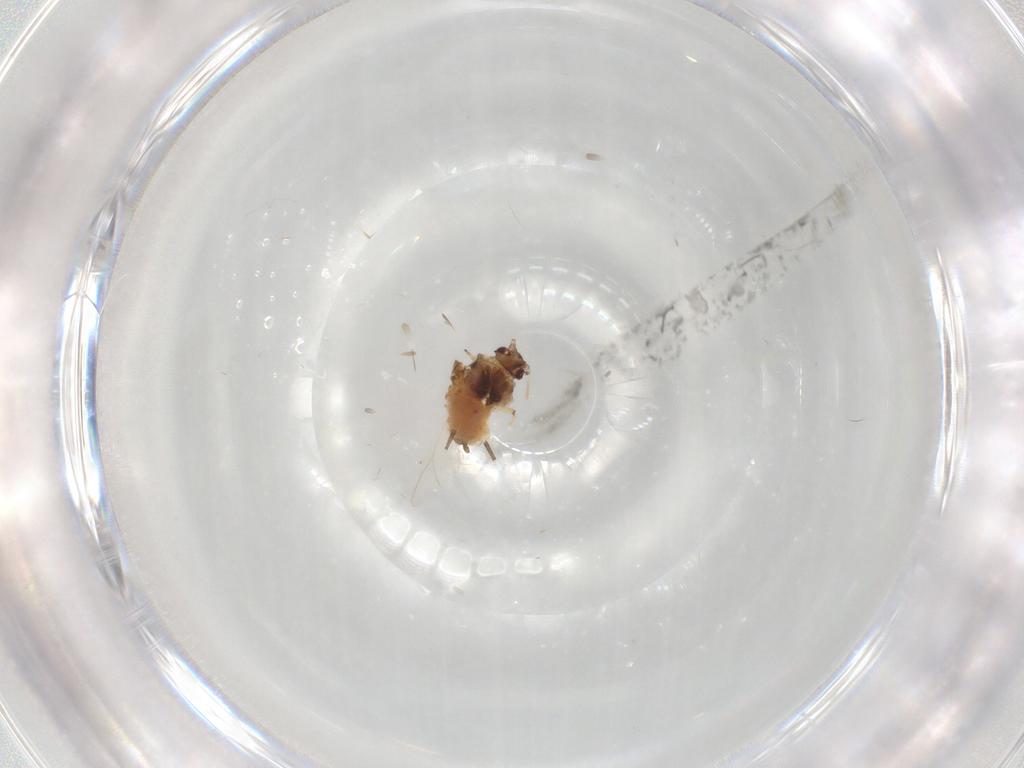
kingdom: Animalia
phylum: Arthropoda
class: Insecta
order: Hemiptera
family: Aphididae
